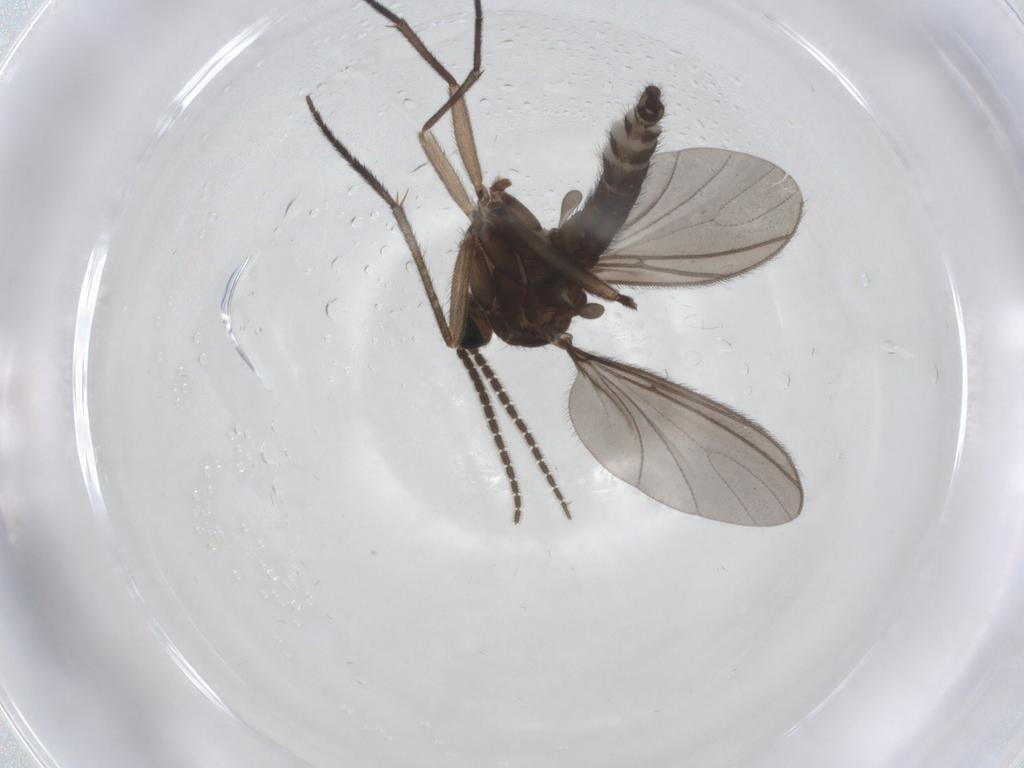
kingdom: Animalia
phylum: Arthropoda
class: Insecta
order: Diptera
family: Sciaridae
